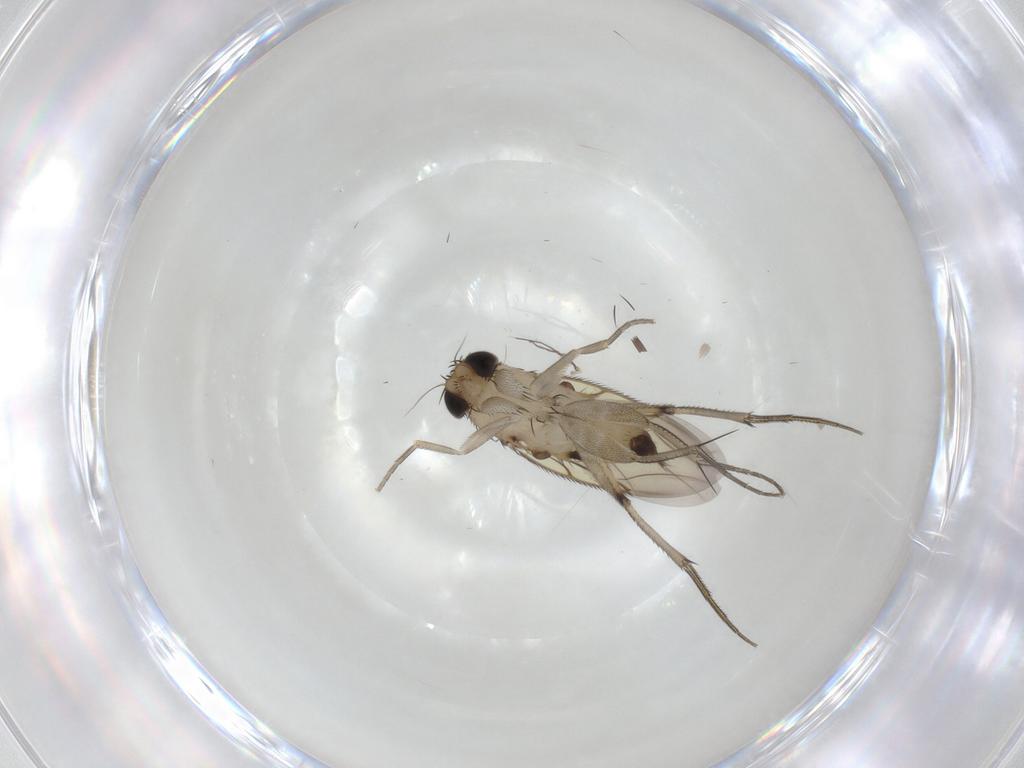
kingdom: Animalia
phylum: Arthropoda
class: Insecta
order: Diptera
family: Phoridae
